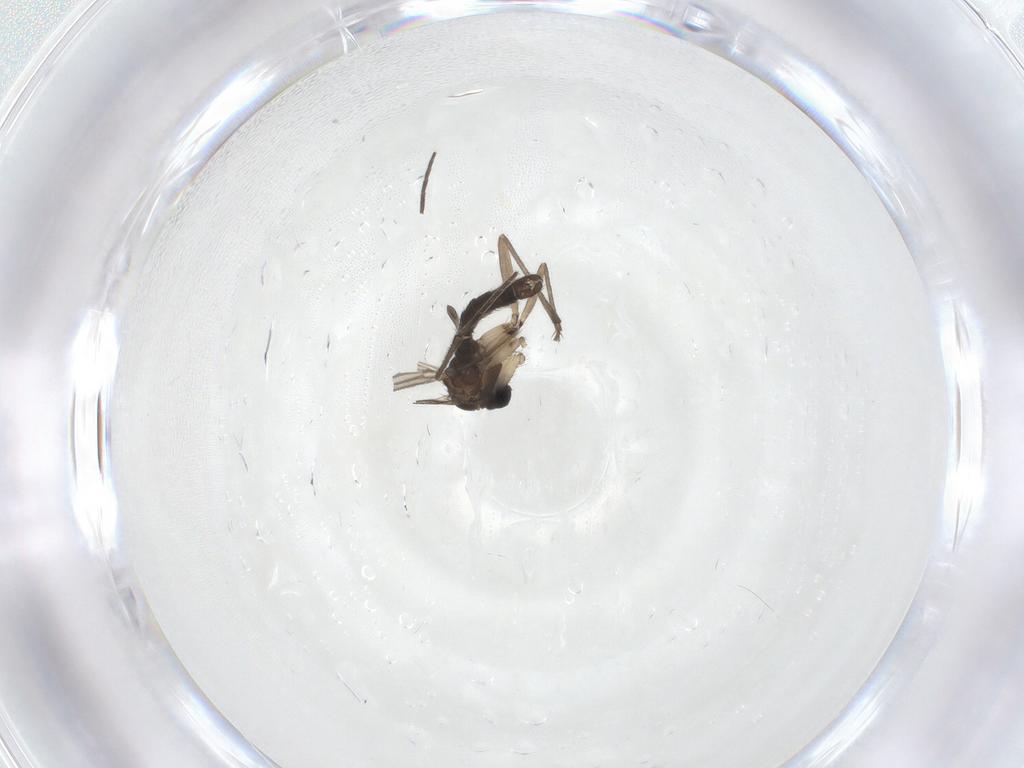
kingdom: Animalia
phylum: Arthropoda
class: Insecta
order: Diptera
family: Sciaridae
